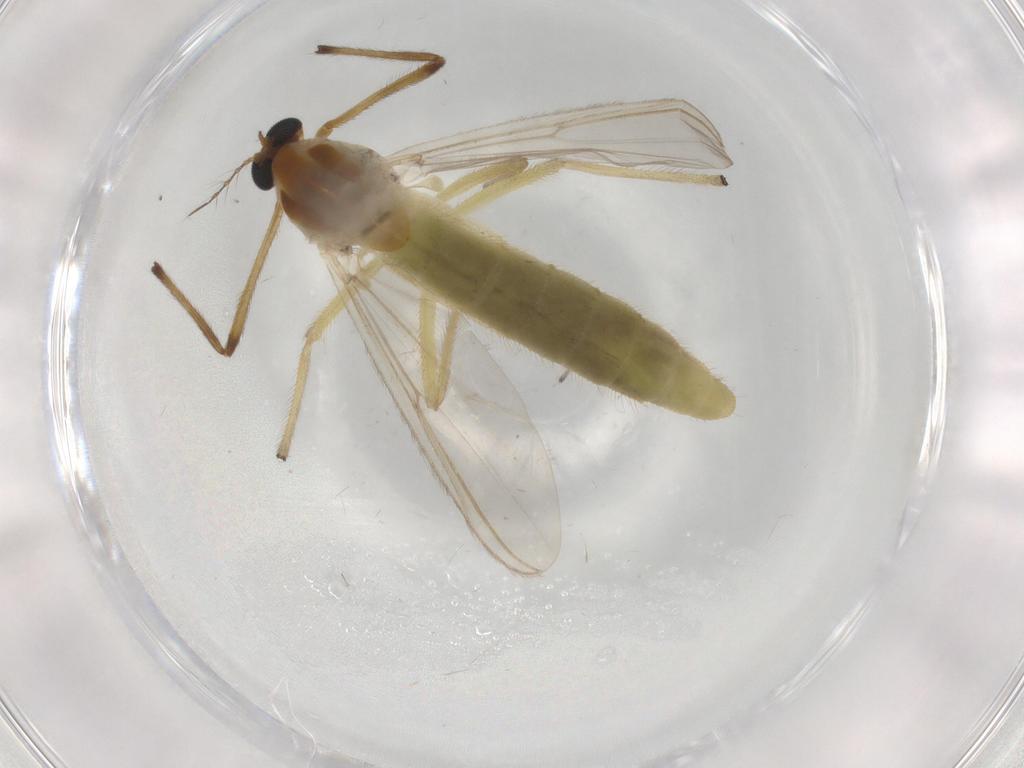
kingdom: Animalia
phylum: Arthropoda
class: Insecta
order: Diptera
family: Chironomidae
